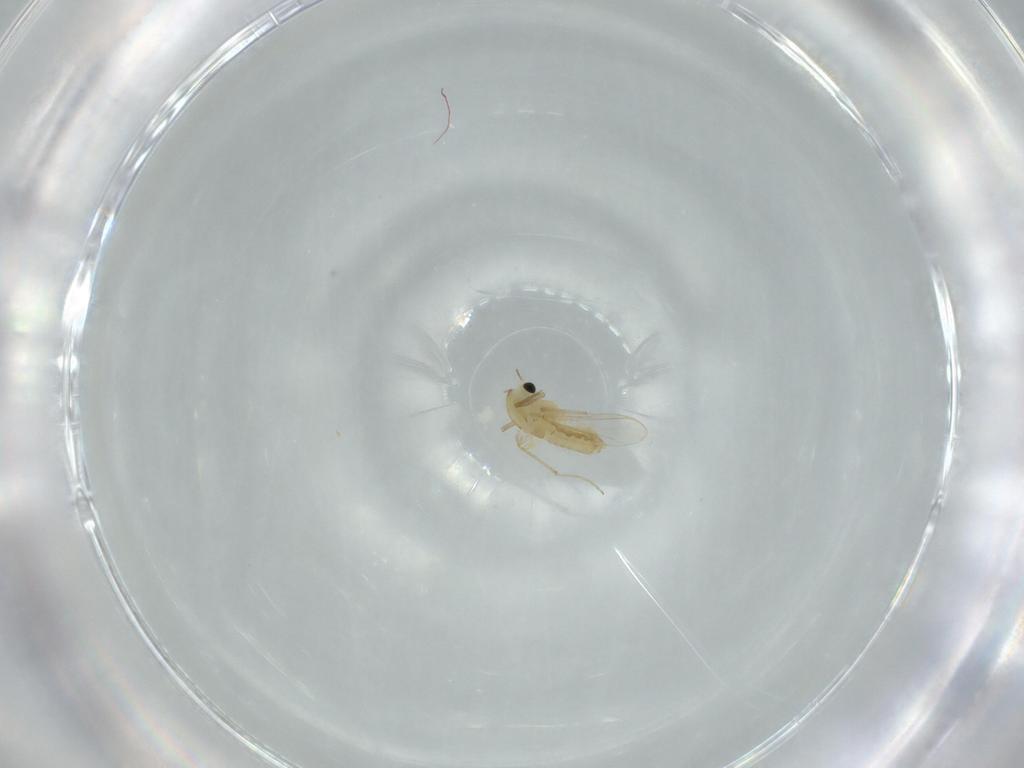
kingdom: Animalia
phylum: Arthropoda
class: Insecta
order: Diptera
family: Chironomidae
